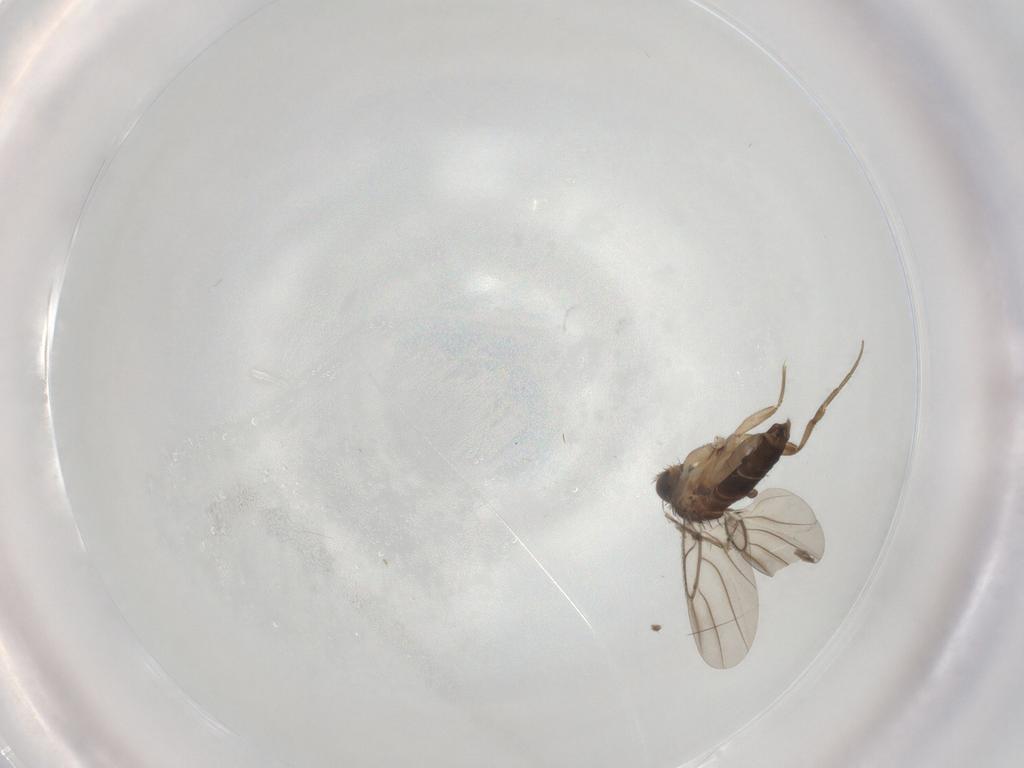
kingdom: Animalia
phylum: Arthropoda
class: Insecta
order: Diptera
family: Phoridae
